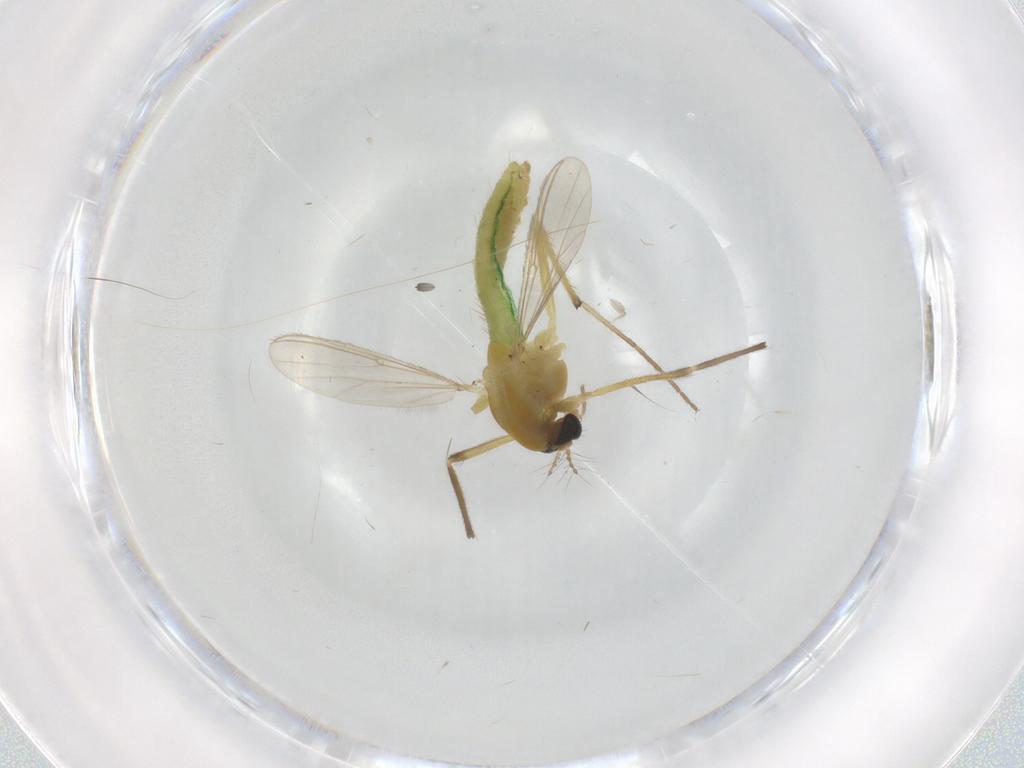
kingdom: Animalia
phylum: Arthropoda
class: Insecta
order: Diptera
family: Chironomidae
